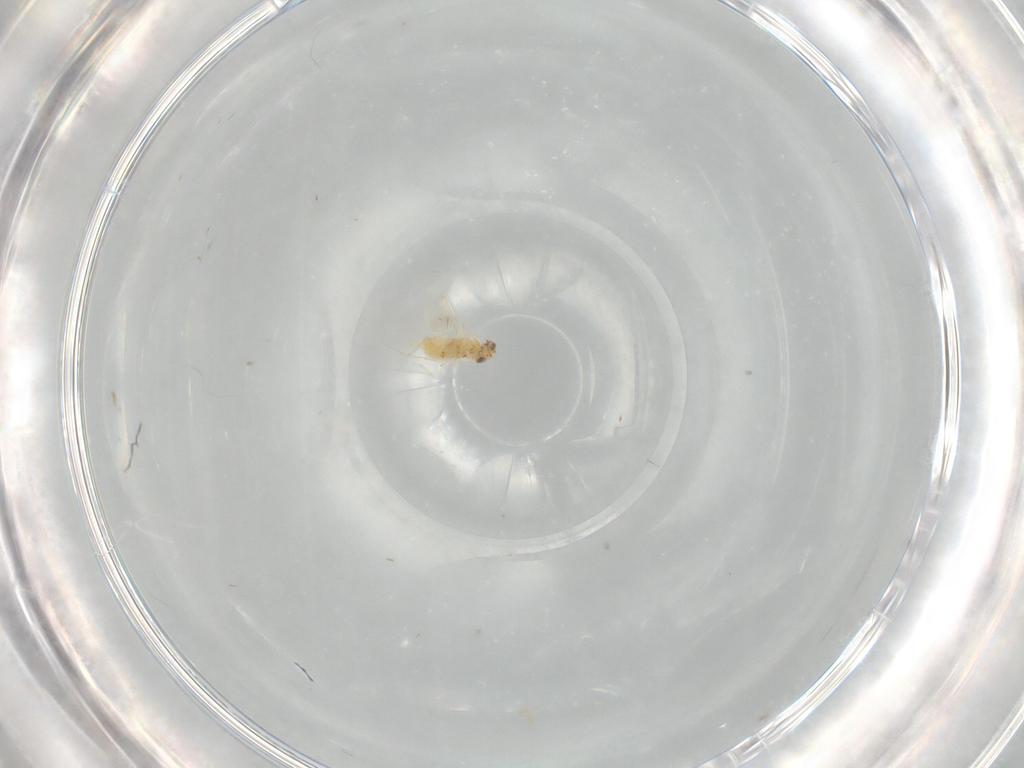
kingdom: Animalia
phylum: Arthropoda
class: Insecta
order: Hymenoptera
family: Aphelinidae
